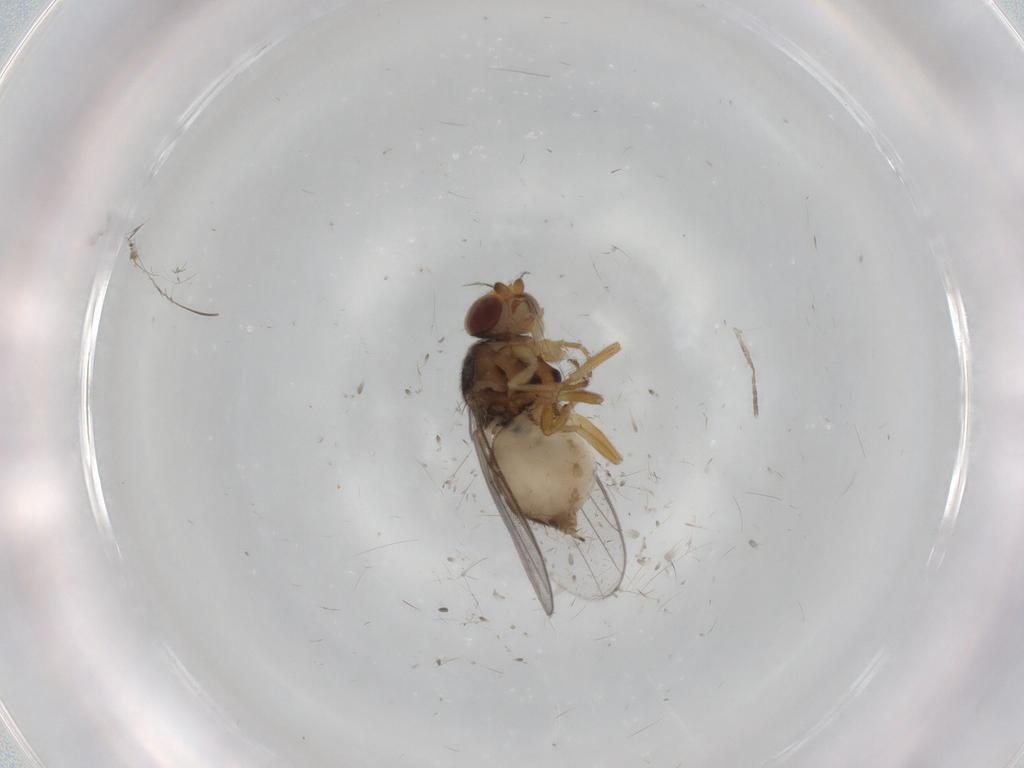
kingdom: Animalia
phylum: Arthropoda
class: Insecta
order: Diptera
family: Chloropidae
